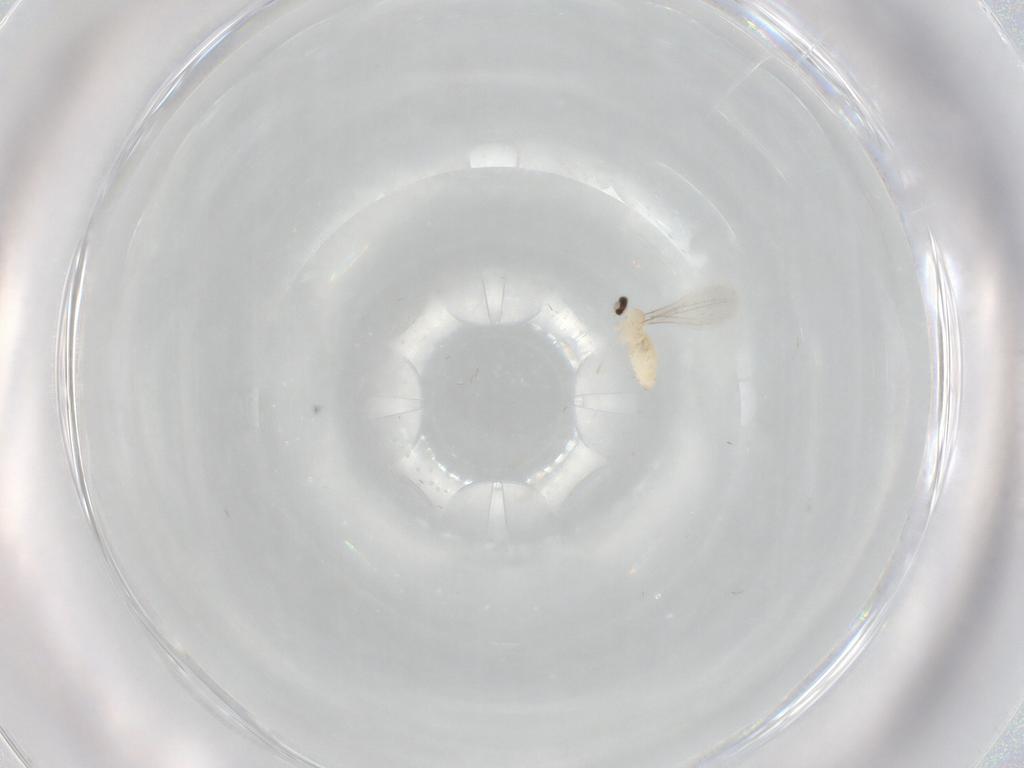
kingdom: Animalia
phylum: Arthropoda
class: Insecta
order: Diptera
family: Cecidomyiidae
